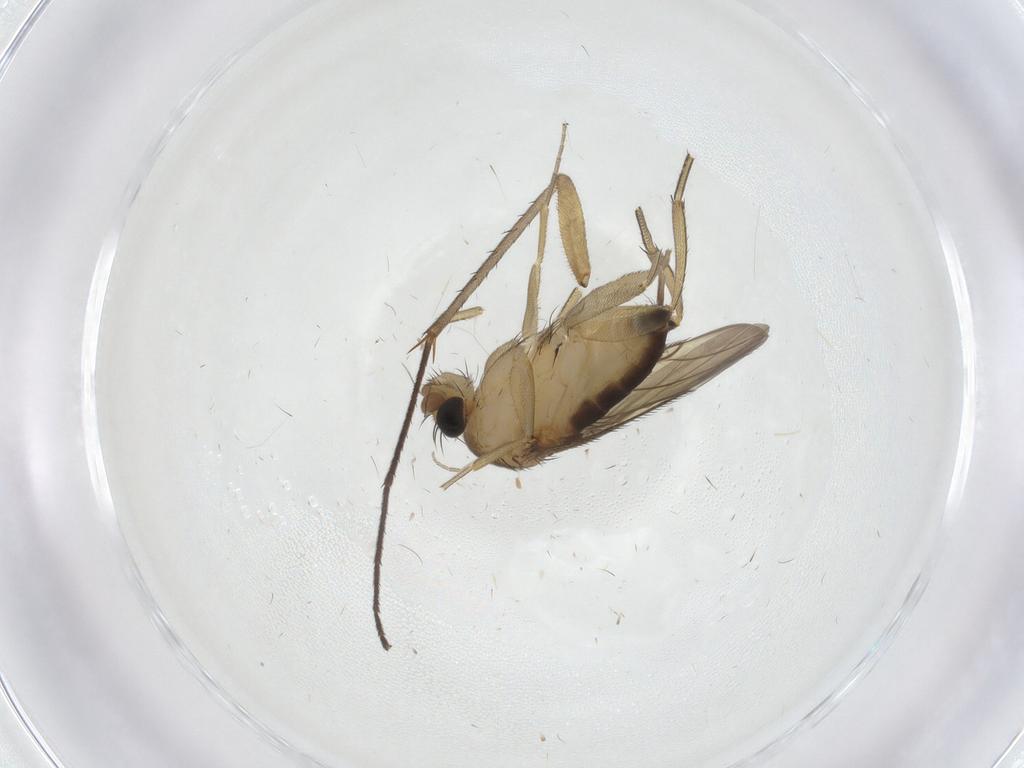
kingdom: Animalia
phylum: Arthropoda
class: Insecta
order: Diptera
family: Phoridae
